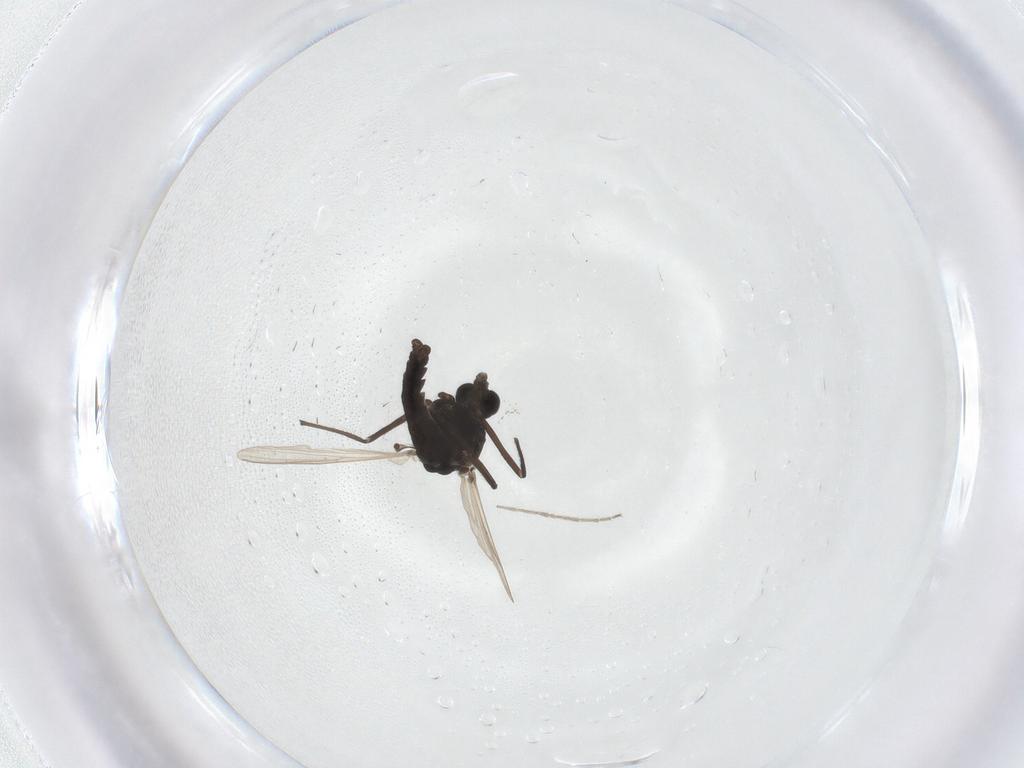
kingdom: Animalia
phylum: Arthropoda
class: Insecta
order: Diptera
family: Chironomidae
